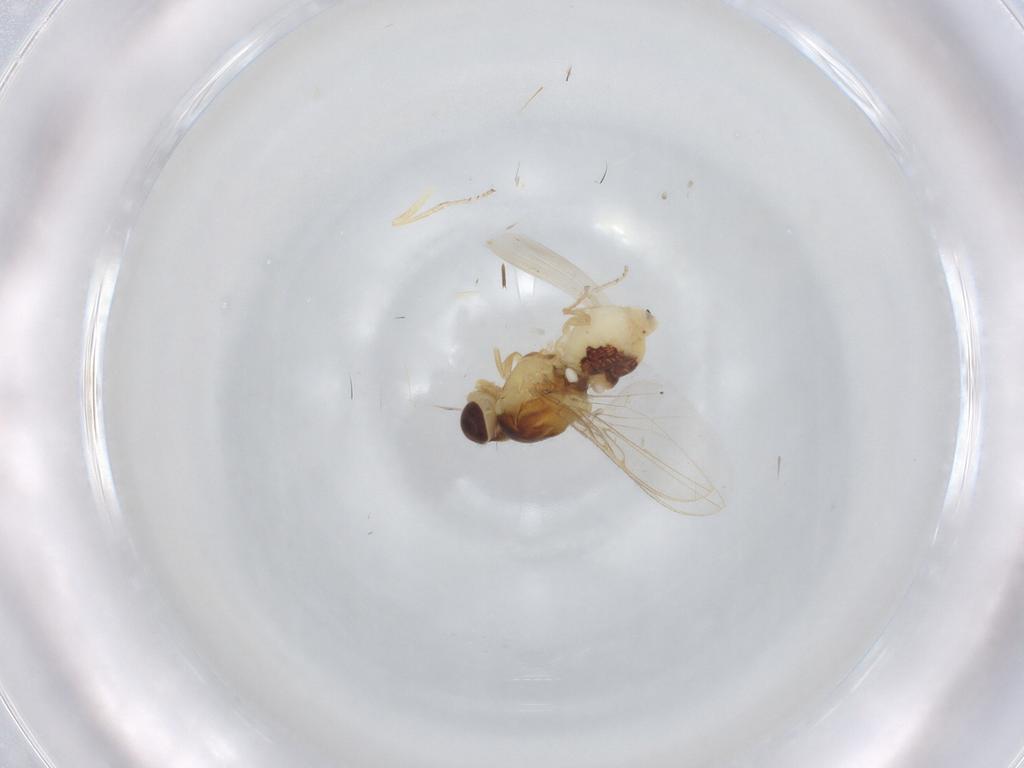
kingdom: Animalia
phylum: Arthropoda
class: Insecta
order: Diptera
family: Asteiidae
